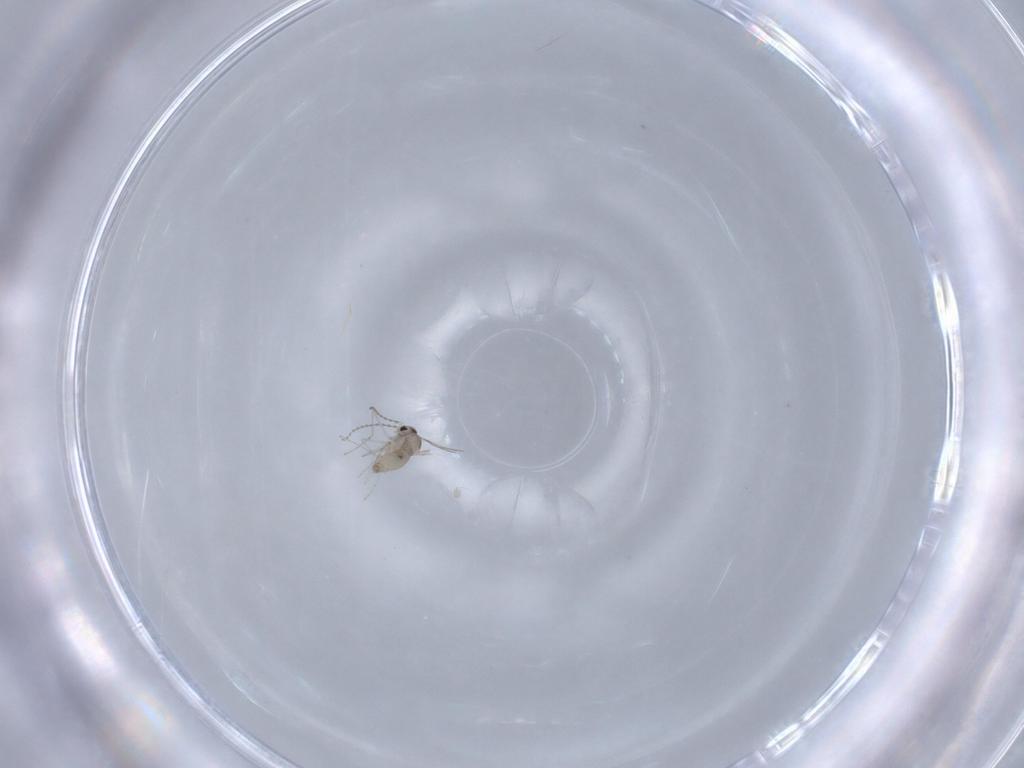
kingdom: Animalia
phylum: Arthropoda
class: Insecta
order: Diptera
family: Cecidomyiidae
